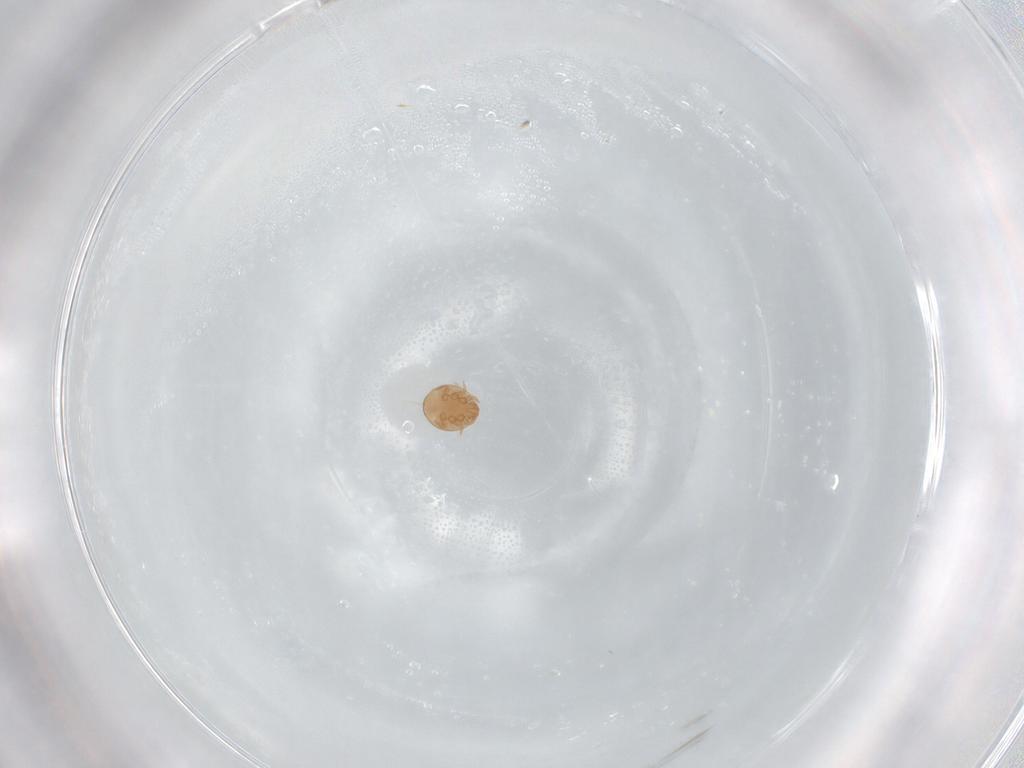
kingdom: Animalia
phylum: Arthropoda
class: Arachnida
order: Mesostigmata
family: Trematuridae
